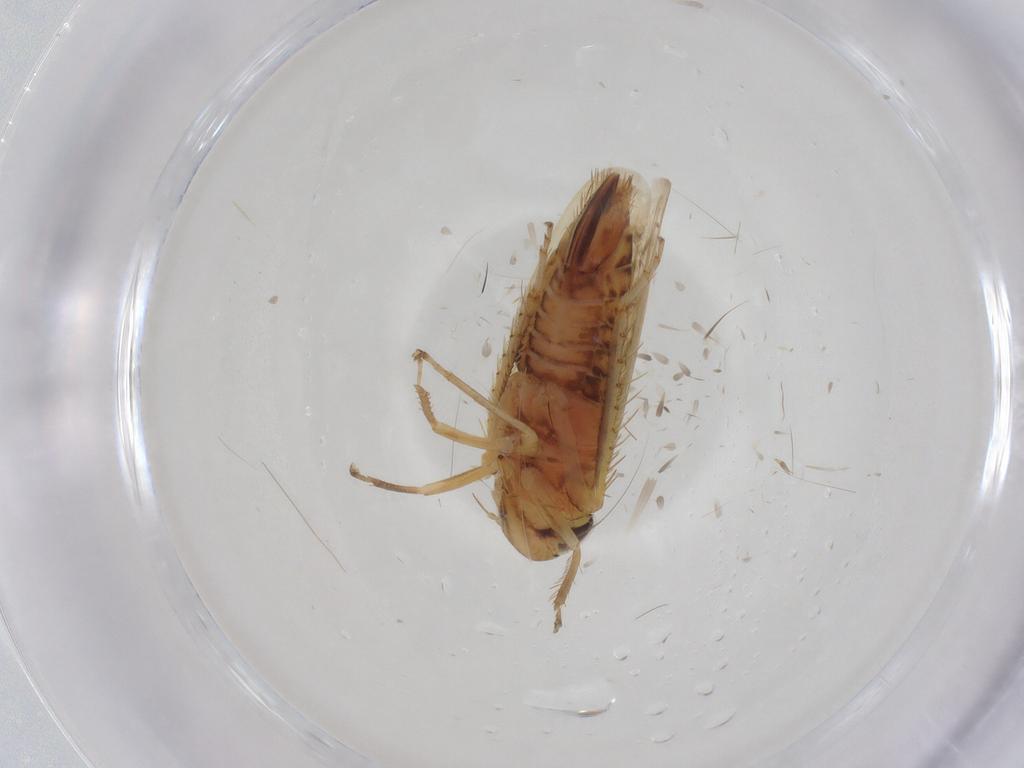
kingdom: Animalia
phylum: Arthropoda
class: Insecta
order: Hemiptera
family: Cicadellidae
